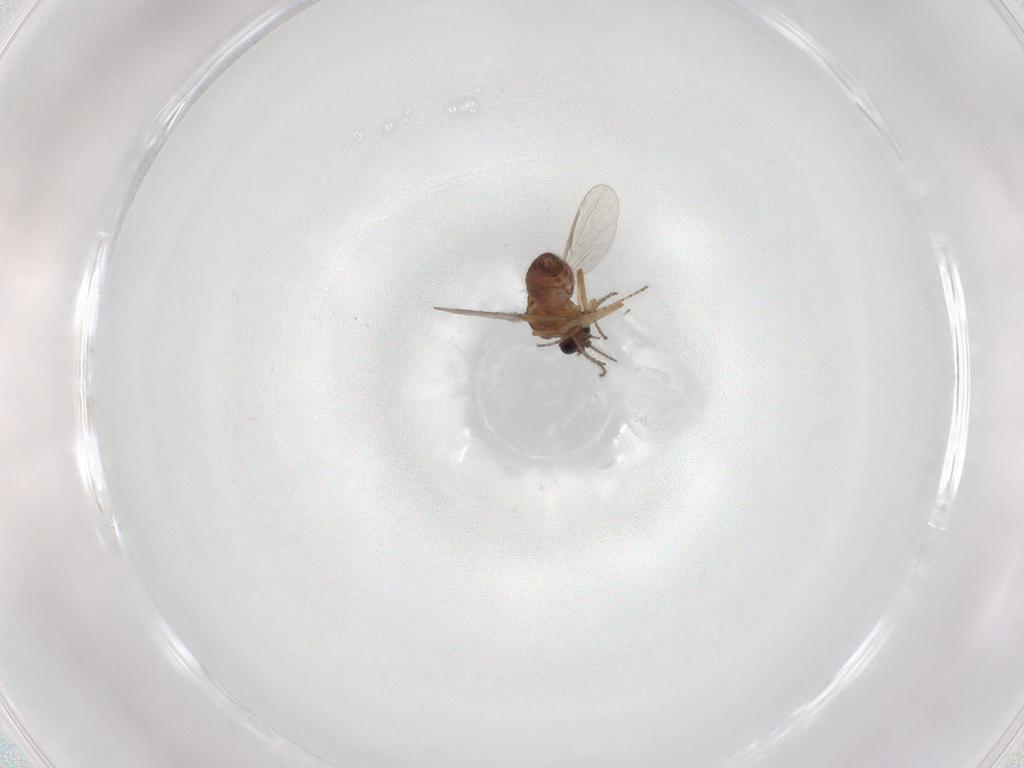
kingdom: Animalia
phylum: Arthropoda
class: Insecta
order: Diptera
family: Ceratopogonidae
